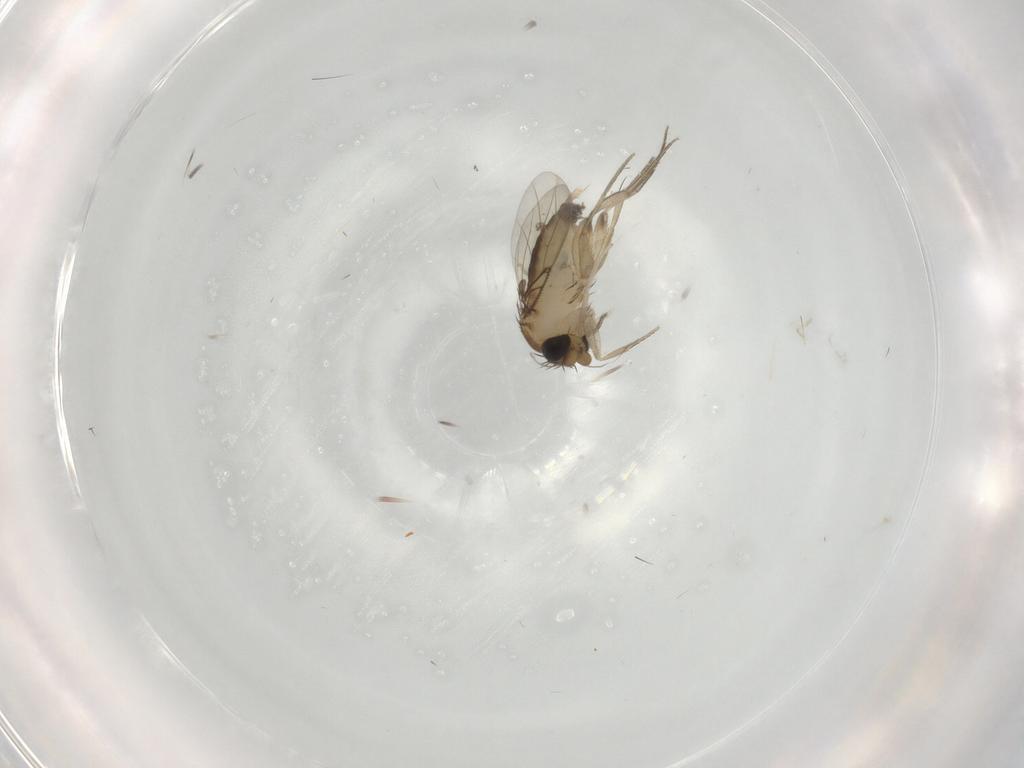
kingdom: Animalia
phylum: Arthropoda
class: Insecta
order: Diptera
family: Phoridae
